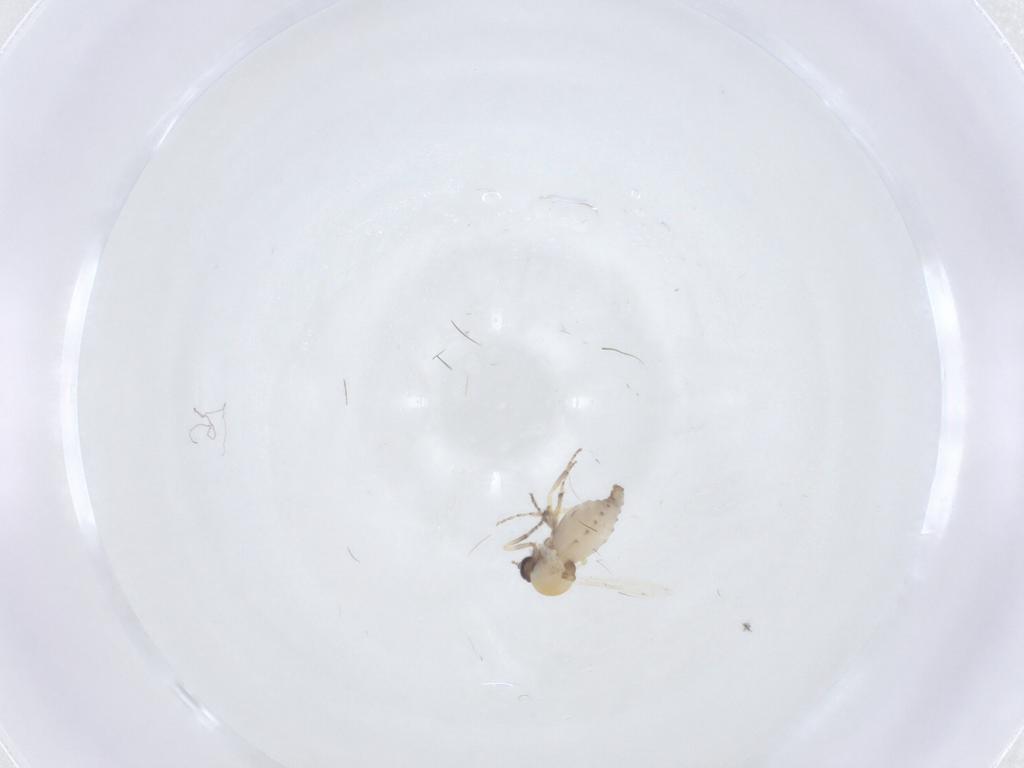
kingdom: Animalia
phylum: Arthropoda
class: Insecta
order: Diptera
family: Ceratopogonidae
